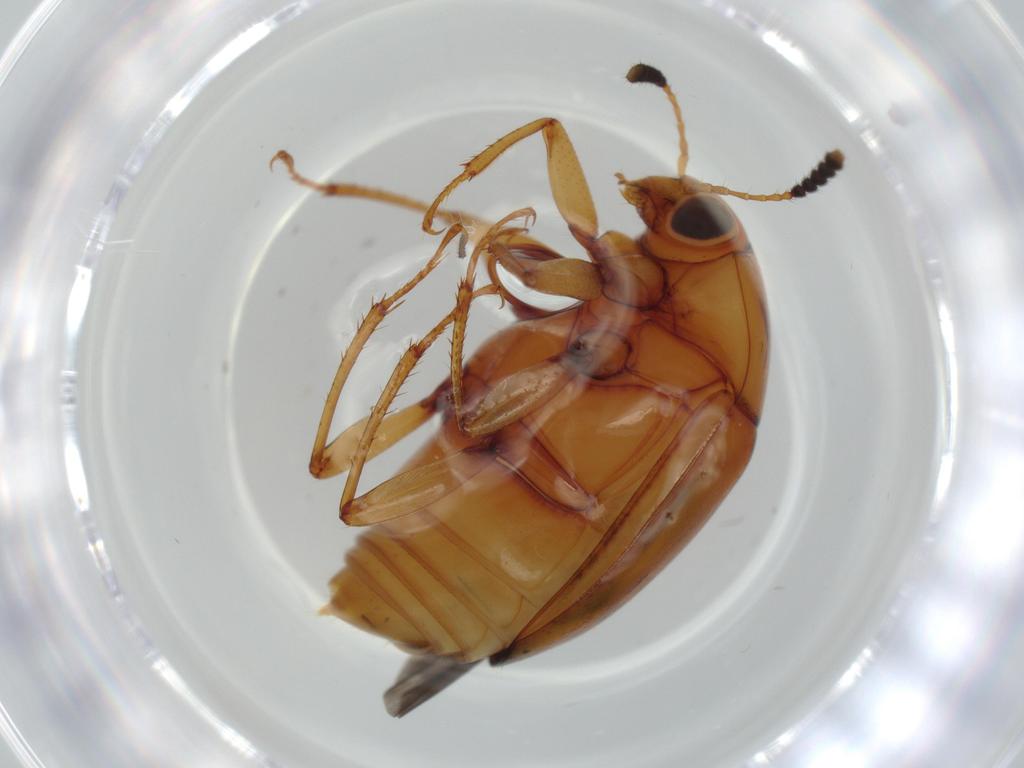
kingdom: Animalia
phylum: Arthropoda
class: Insecta
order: Coleoptera
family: Staphylinidae
